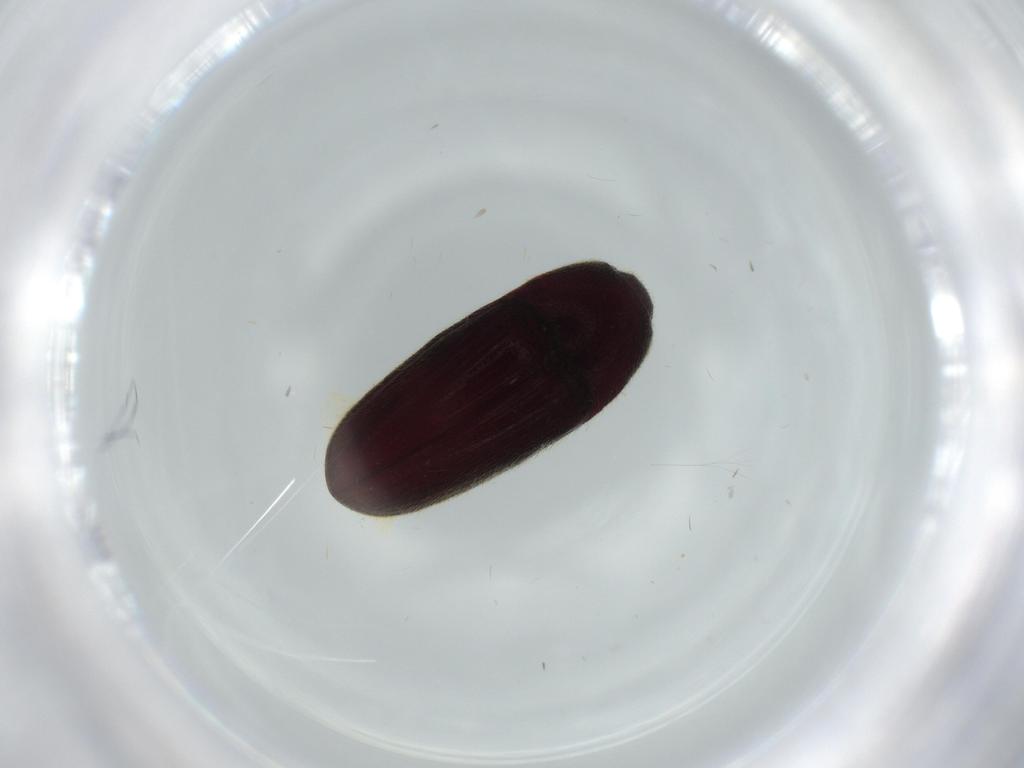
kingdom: Animalia
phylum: Arthropoda
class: Insecta
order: Coleoptera
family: Throscidae
